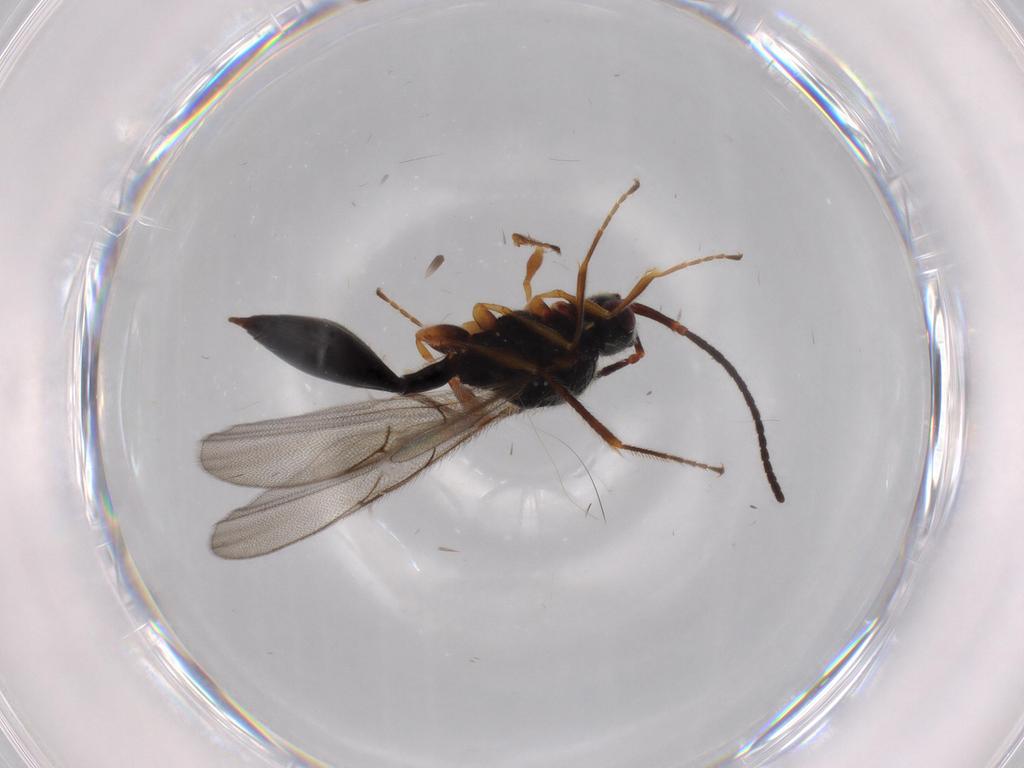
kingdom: Animalia
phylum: Arthropoda
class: Insecta
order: Hymenoptera
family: Diapriidae
